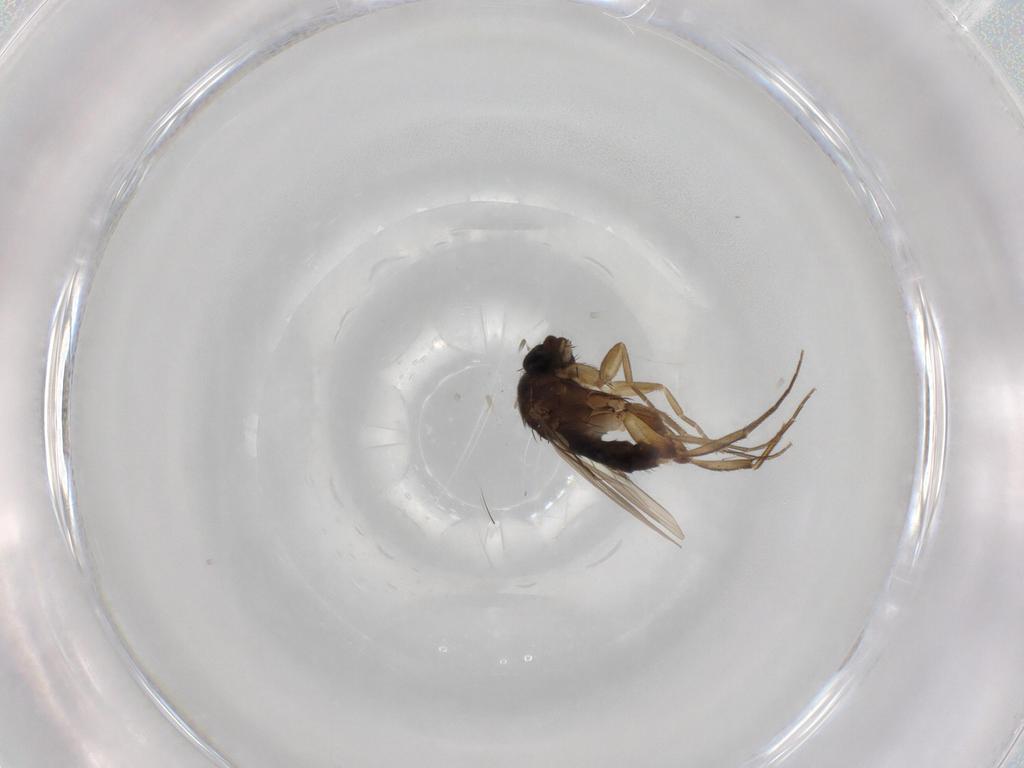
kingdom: Animalia
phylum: Arthropoda
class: Insecta
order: Diptera
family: Phoridae
